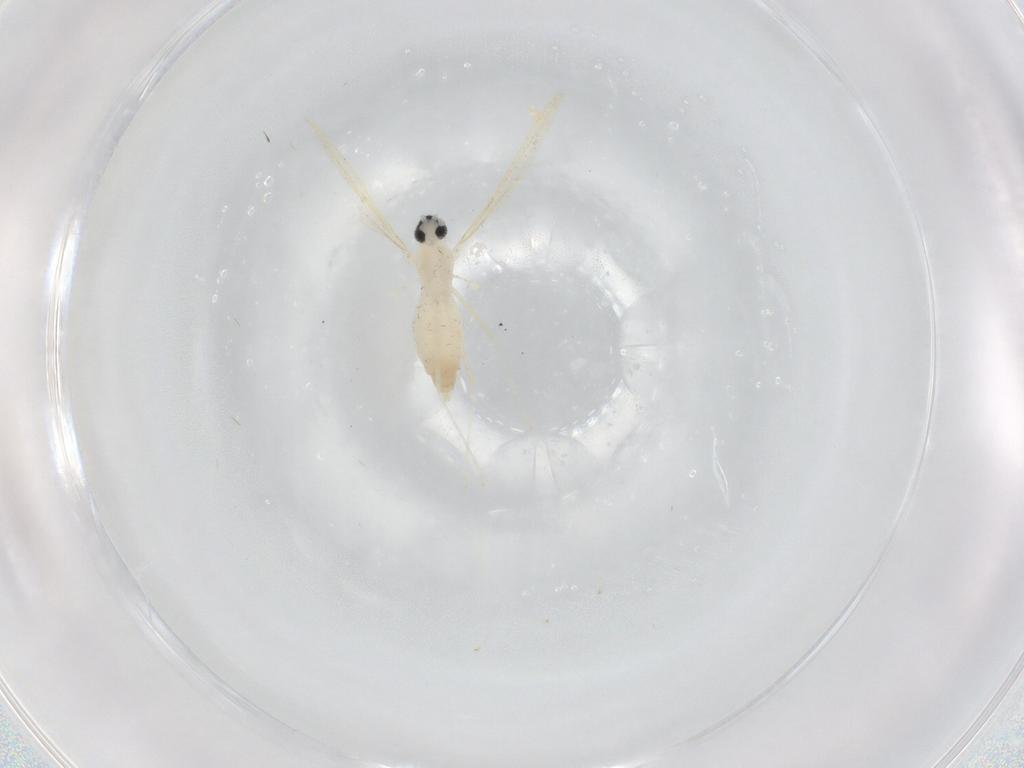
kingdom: Animalia
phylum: Arthropoda
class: Insecta
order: Diptera
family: Cecidomyiidae
